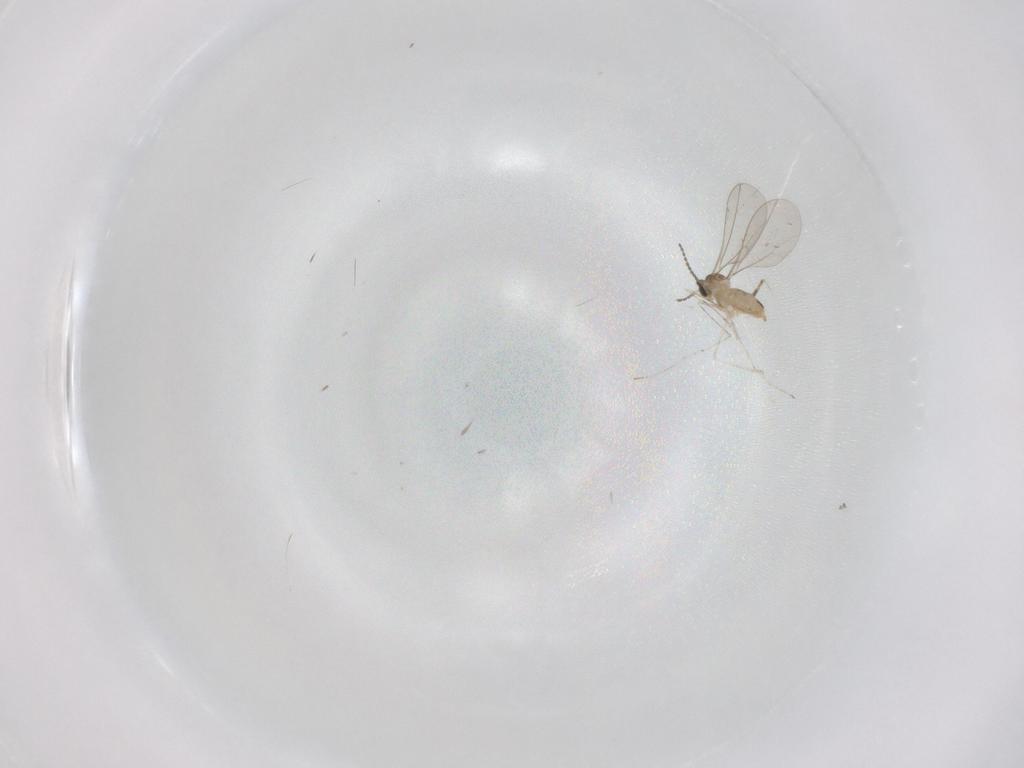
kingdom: Animalia
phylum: Arthropoda
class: Insecta
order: Diptera
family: Cecidomyiidae
